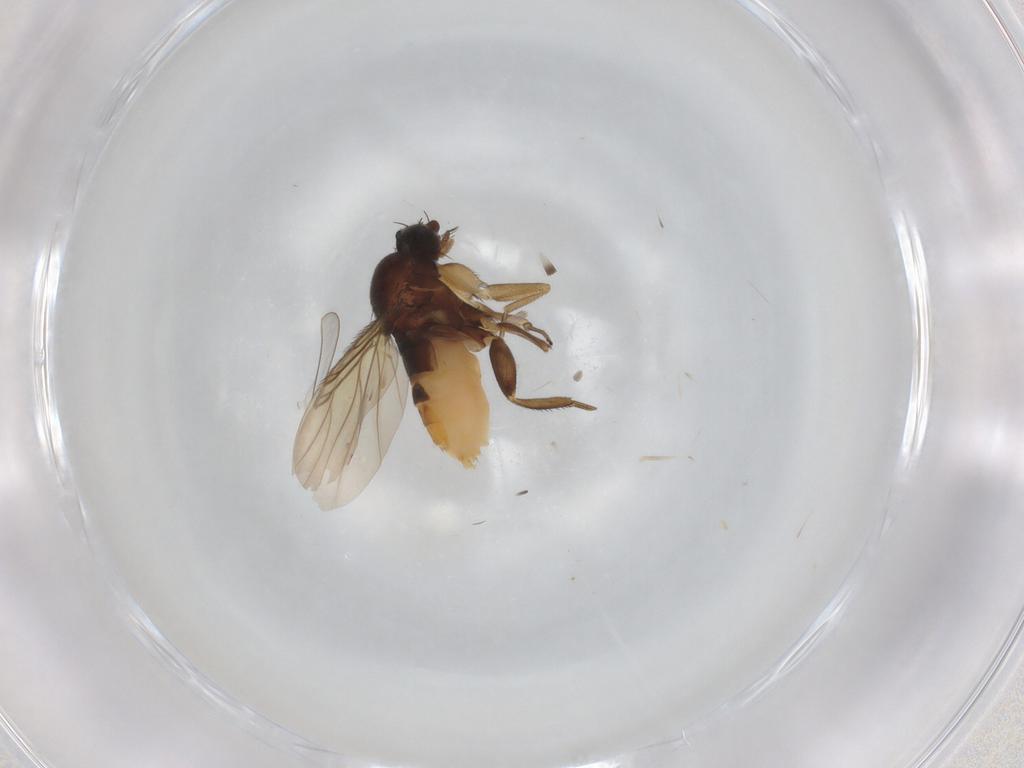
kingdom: Animalia
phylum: Arthropoda
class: Insecta
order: Diptera
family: Phoridae
